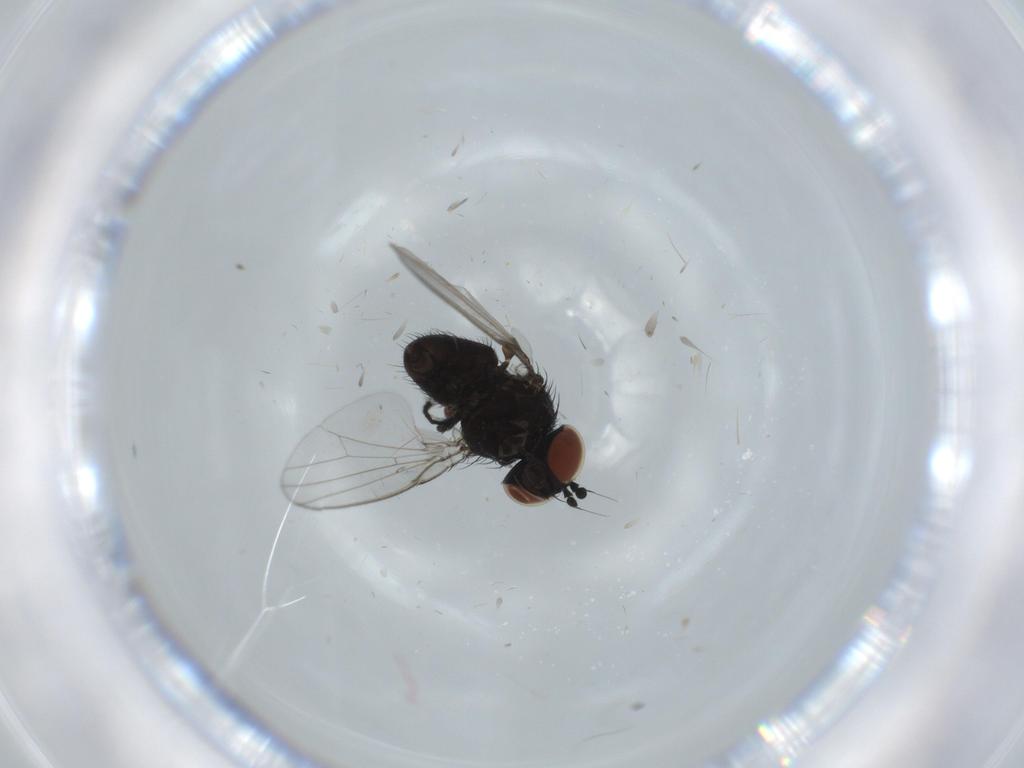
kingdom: Animalia
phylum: Arthropoda
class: Insecta
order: Diptera
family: Milichiidae
